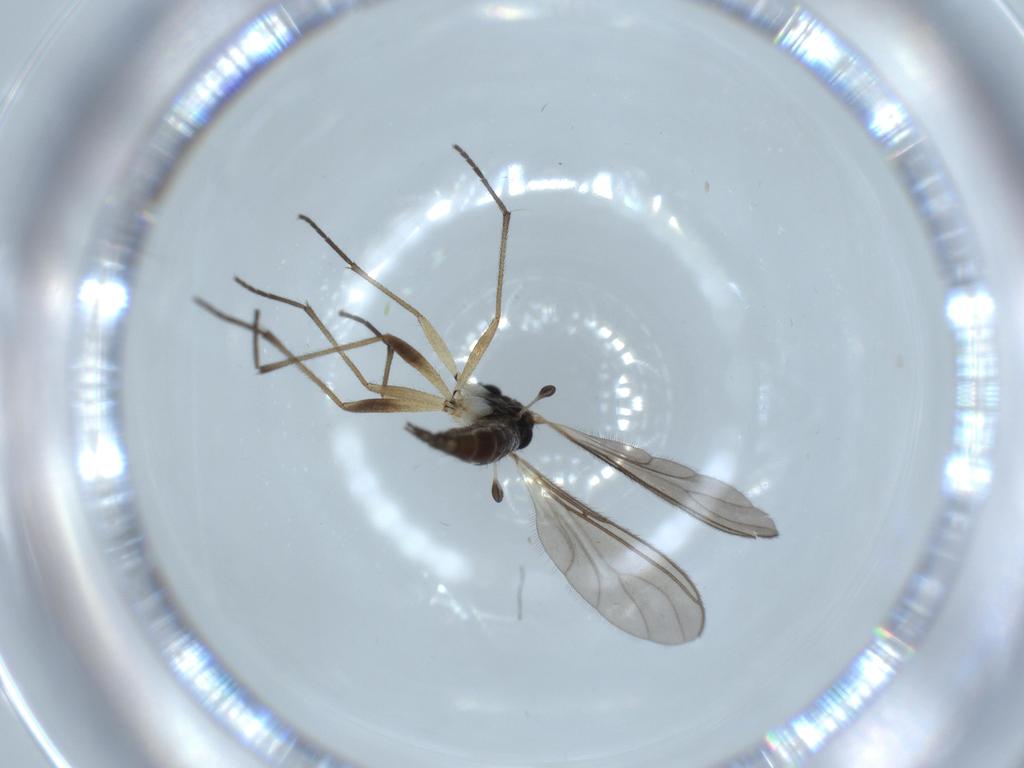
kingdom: Animalia
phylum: Arthropoda
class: Insecta
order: Diptera
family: Sciaridae
